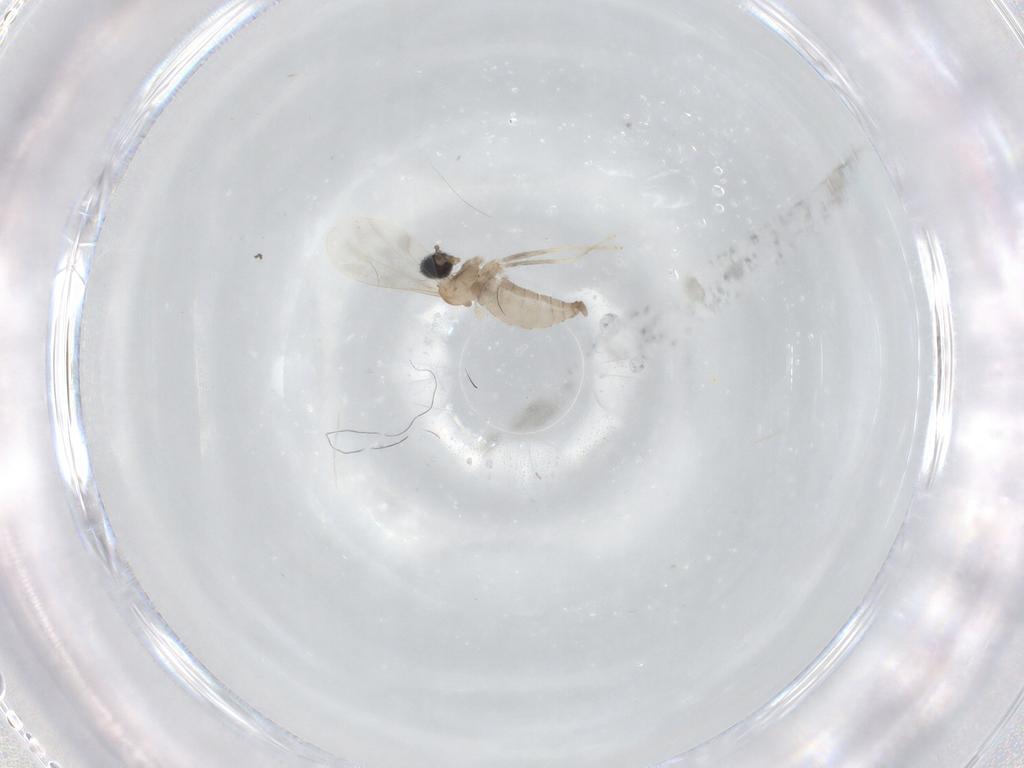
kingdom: Animalia
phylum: Arthropoda
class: Insecta
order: Diptera
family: Cecidomyiidae
